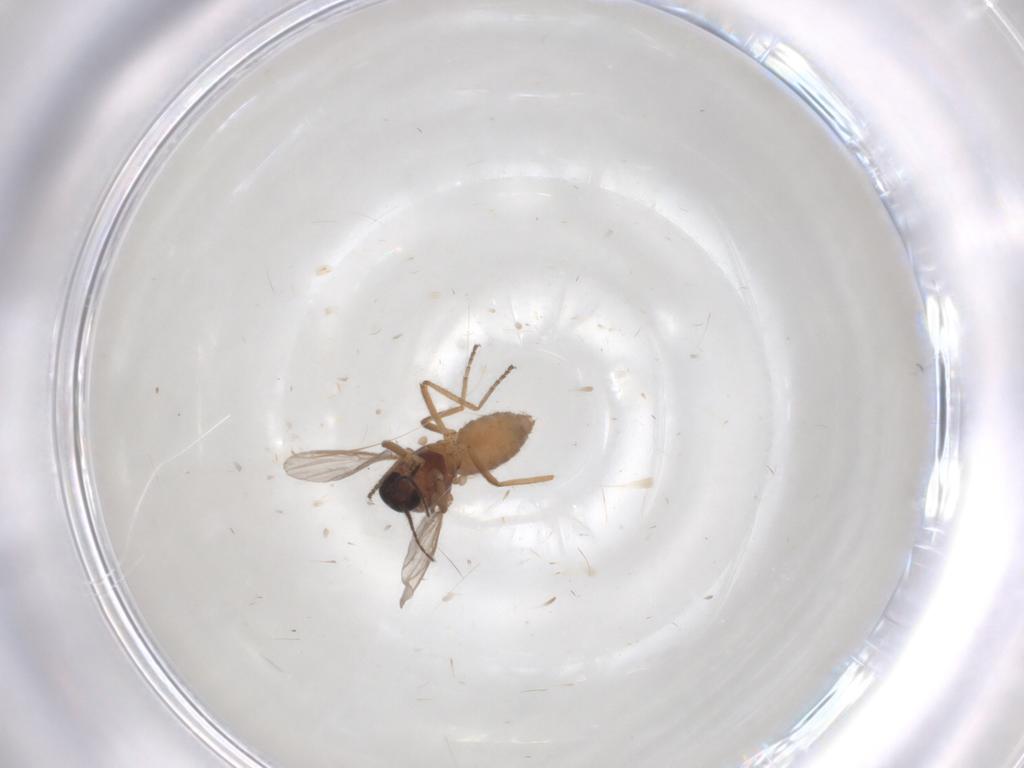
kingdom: Animalia
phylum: Arthropoda
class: Insecta
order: Diptera
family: Ceratopogonidae
